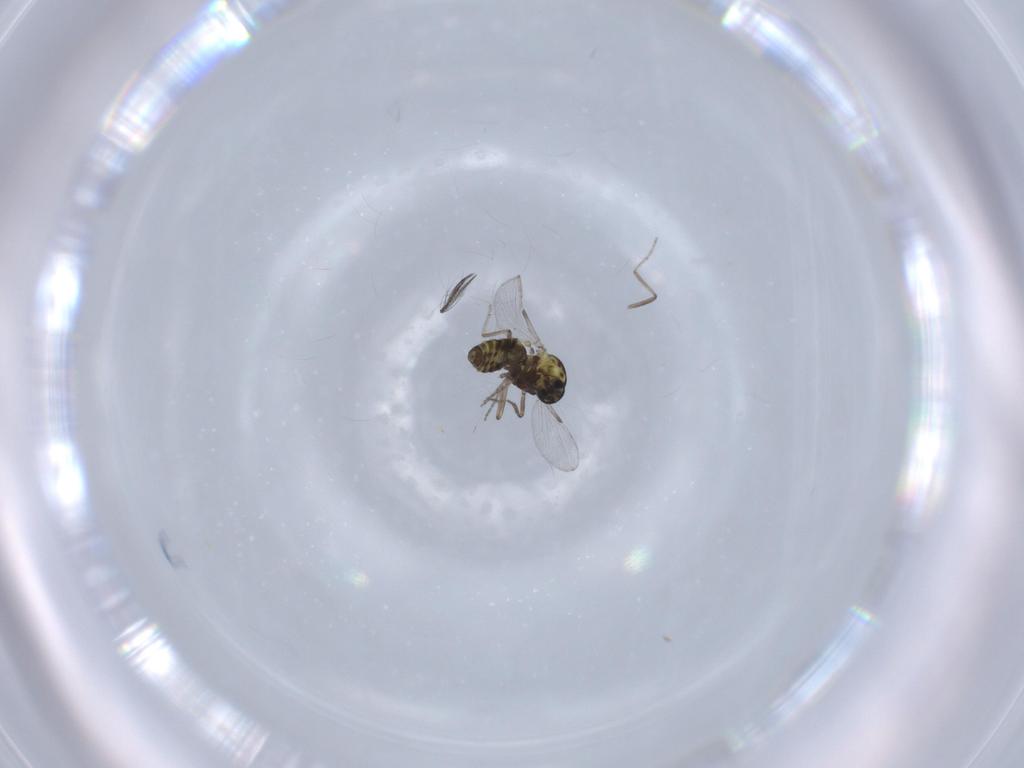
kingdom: Animalia
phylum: Arthropoda
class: Insecta
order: Diptera
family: Ceratopogonidae
